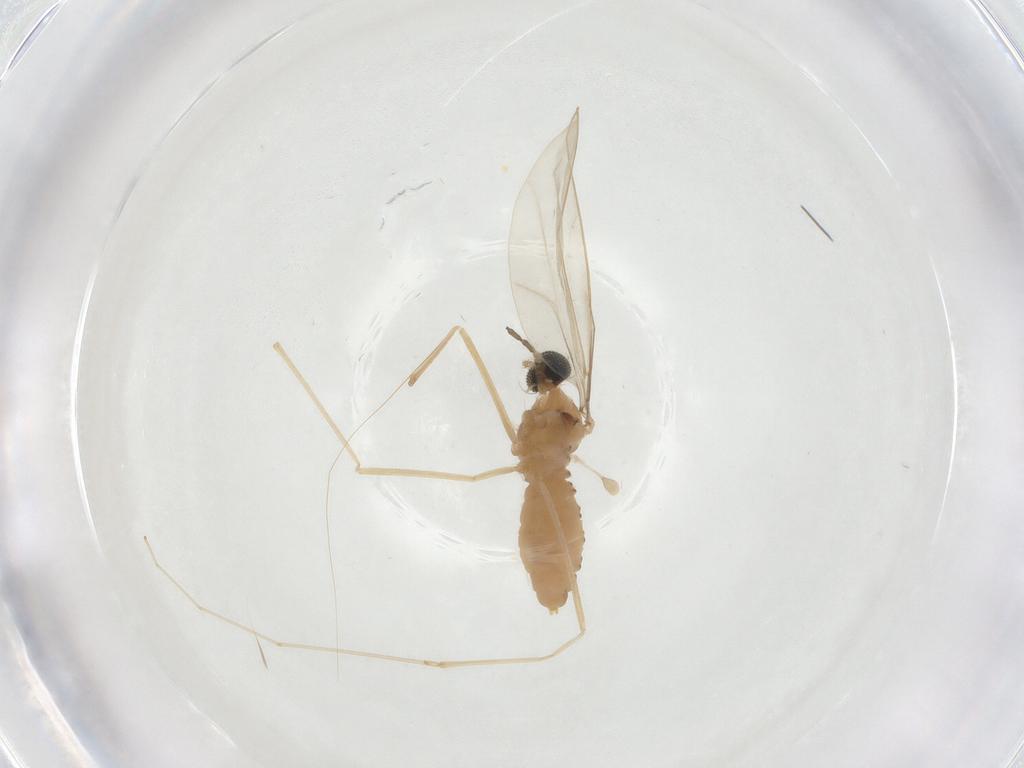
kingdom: Animalia
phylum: Arthropoda
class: Insecta
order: Diptera
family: Cecidomyiidae
